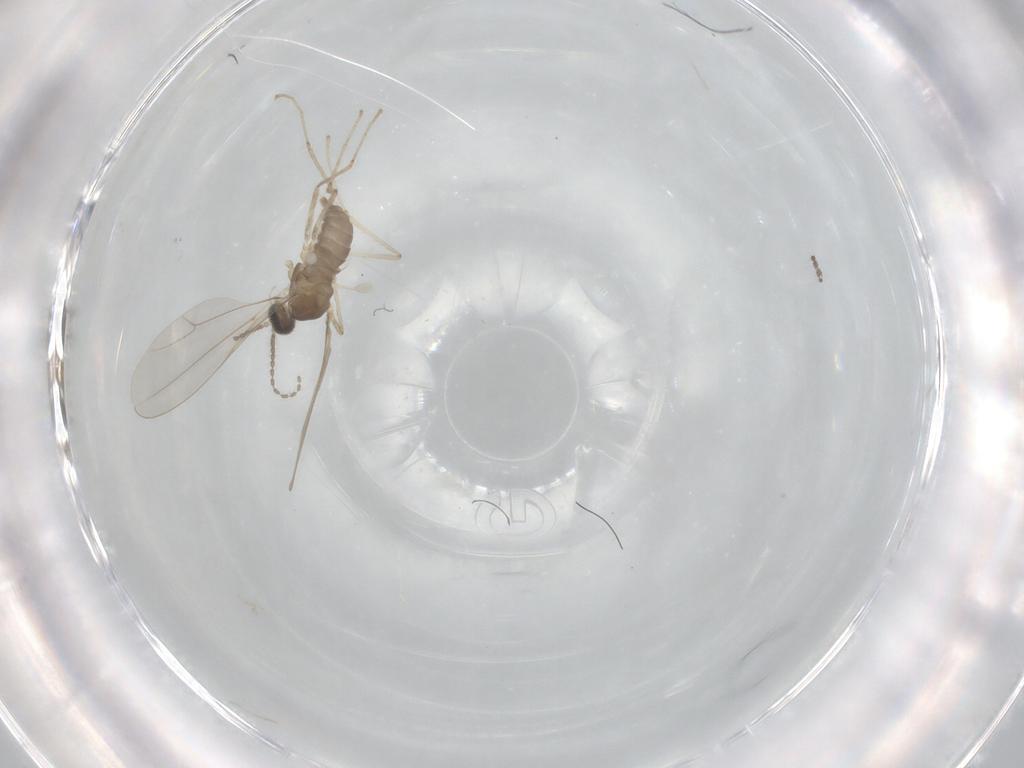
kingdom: Animalia
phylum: Arthropoda
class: Insecta
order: Diptera
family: Cecidomyiidae
